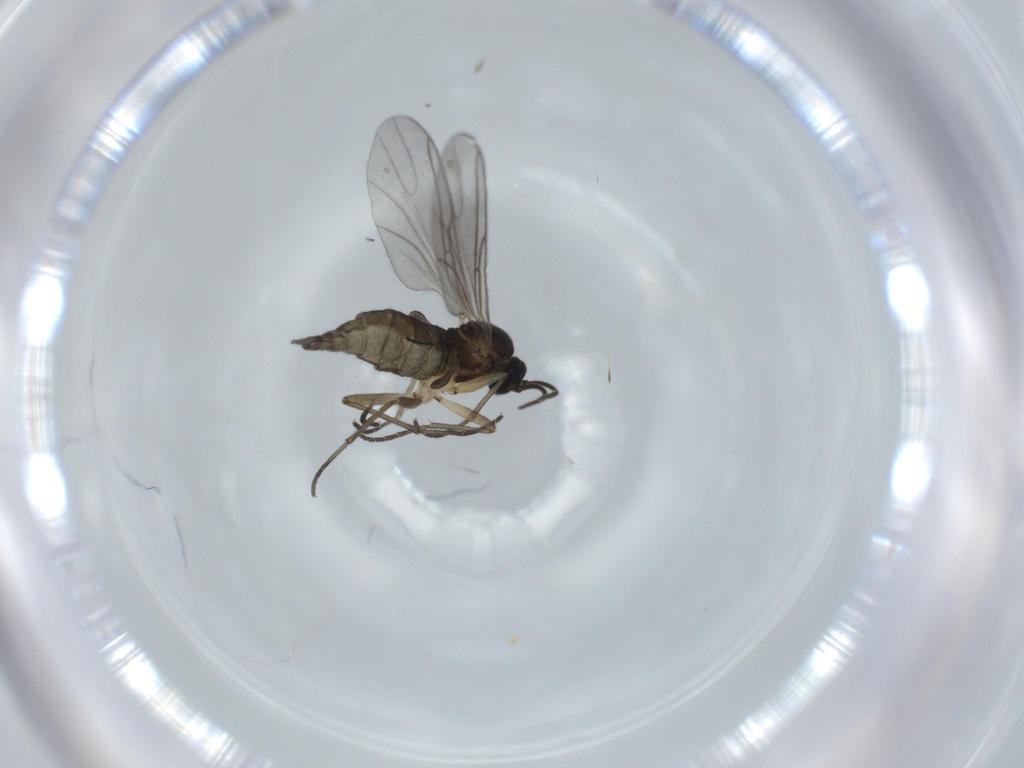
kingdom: Animalia
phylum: Arthropoda
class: Insecta
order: Diptera
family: Sciaridae
